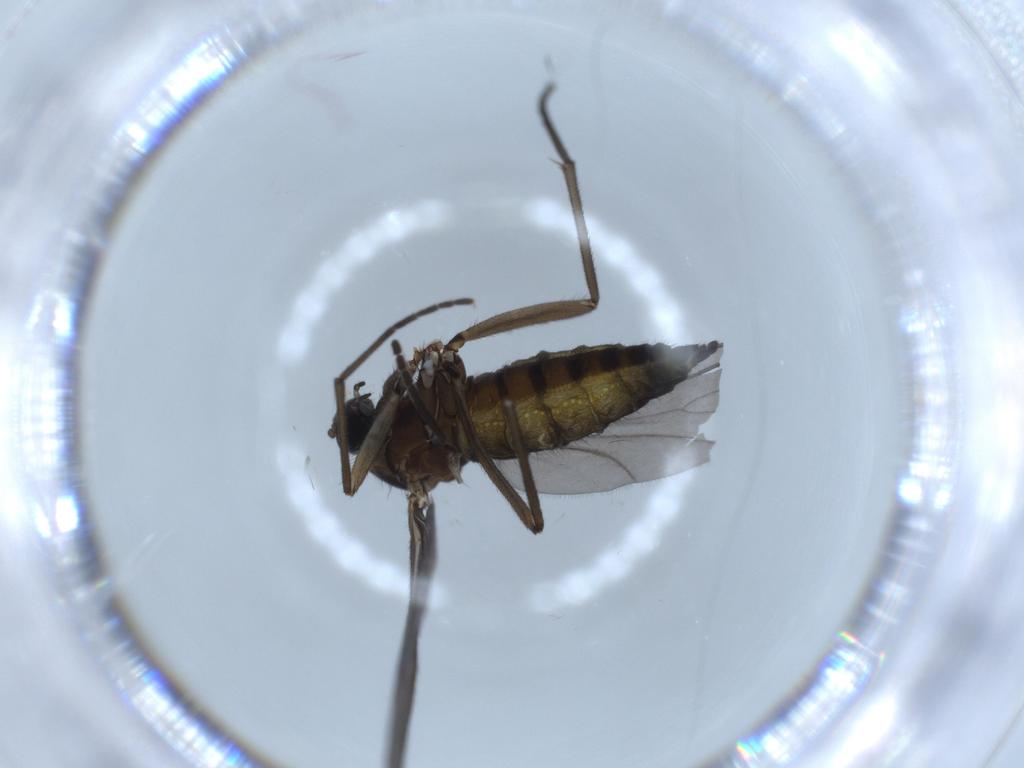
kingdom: Animalia
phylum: Arthropoda
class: Insecta
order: Diptera
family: Sciaridae
